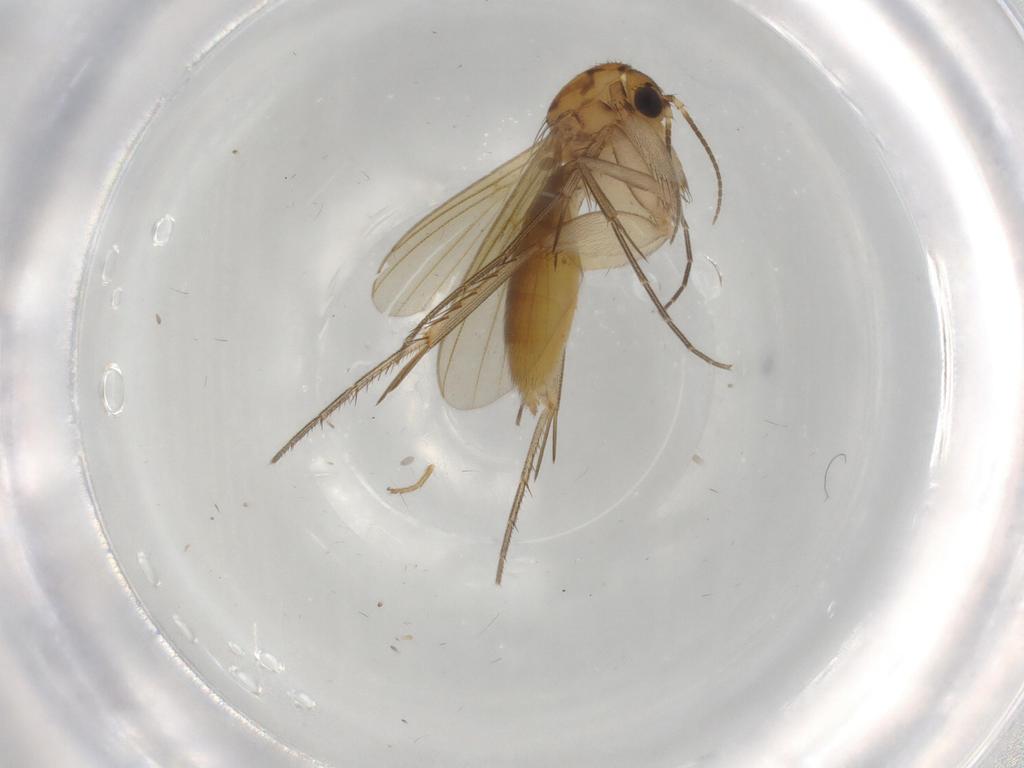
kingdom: Animalia
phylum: Arthropoda
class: Insecta
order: Diptera
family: Mycetophilidae
